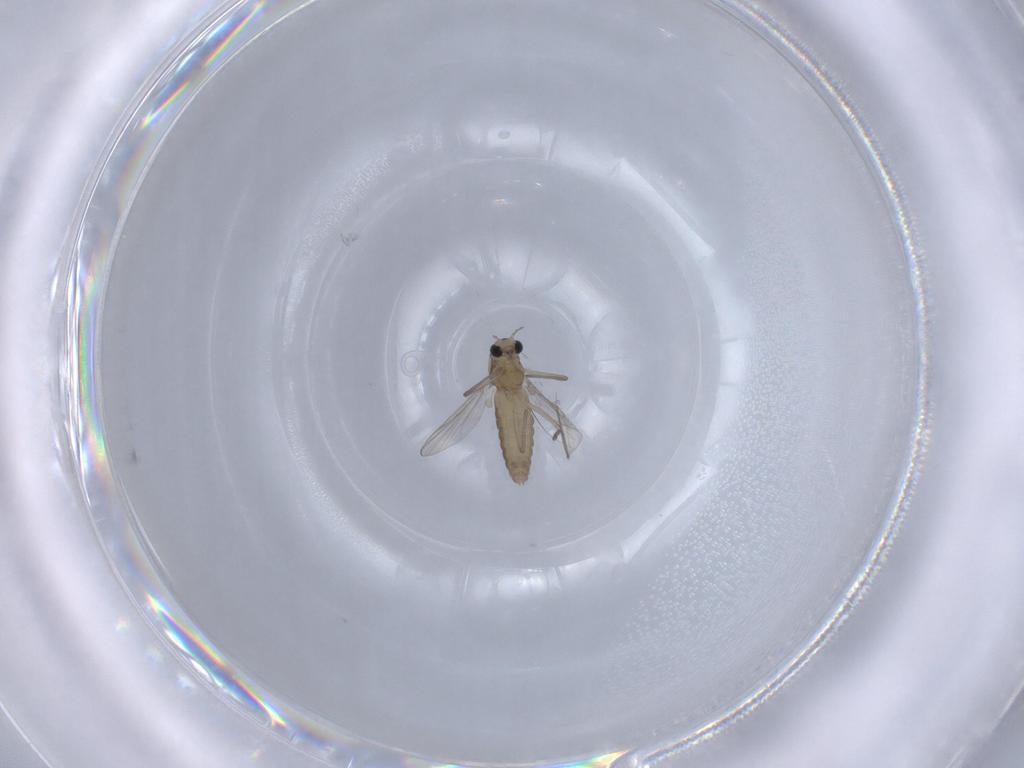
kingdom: Animalia
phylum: Arthropoda
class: Insecta
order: Diptera
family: Chironomidae
